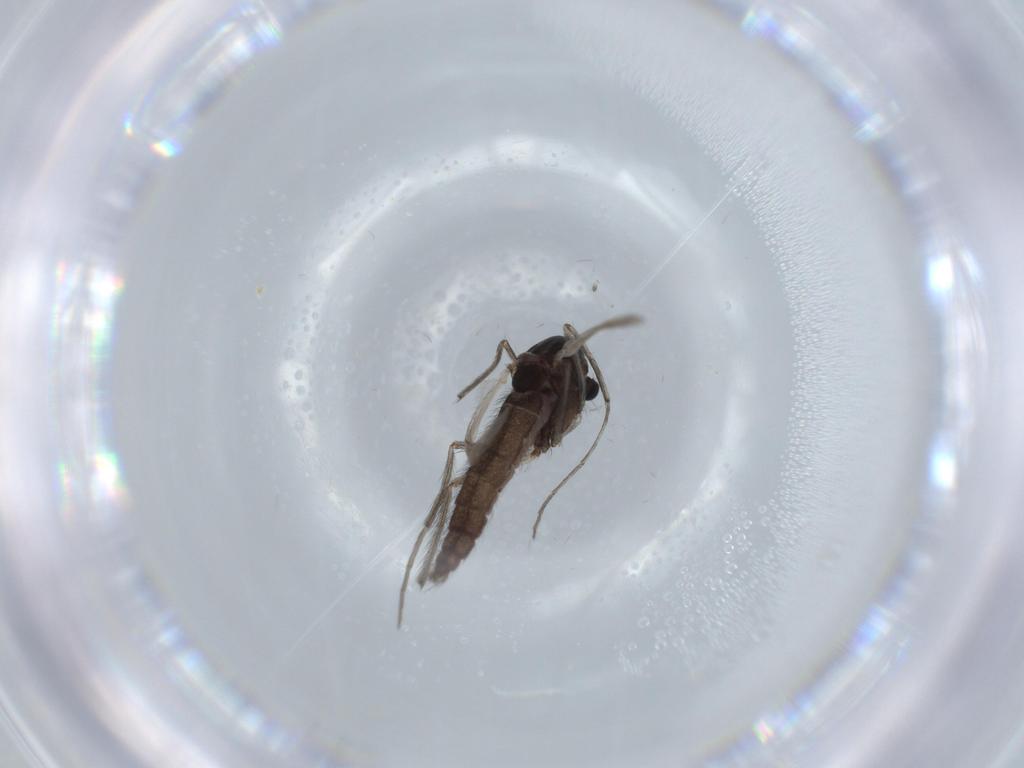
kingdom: Animalia
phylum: Arthropoda
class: Insecta
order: Diptera
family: Chironomidae
